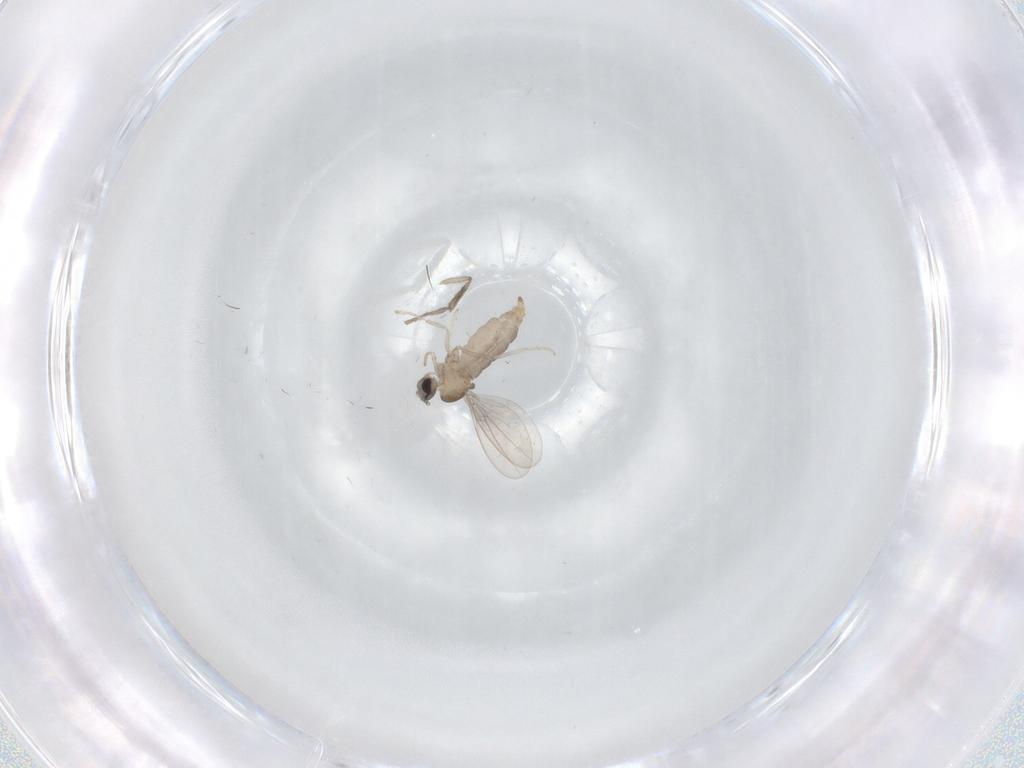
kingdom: Animalia
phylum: Arthropoda
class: Insecta
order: Diptera
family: Cecidomyiidae
